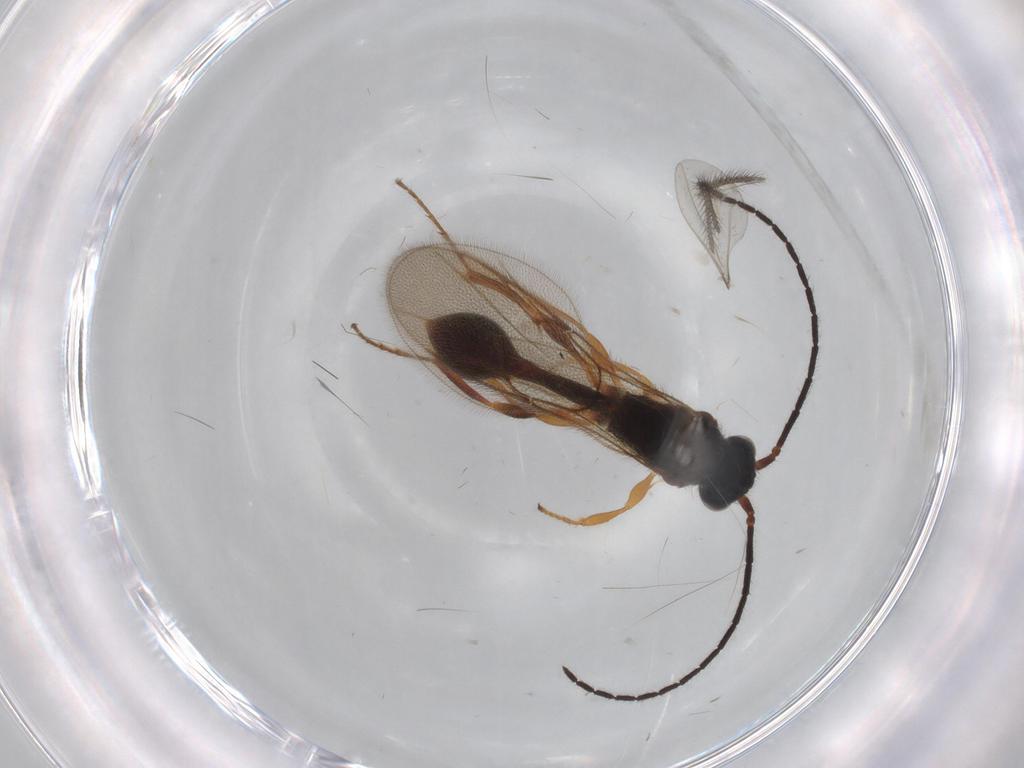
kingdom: Animalia
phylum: Arthropoda
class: Insecta
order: Hymenoptera
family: Diapriidae
